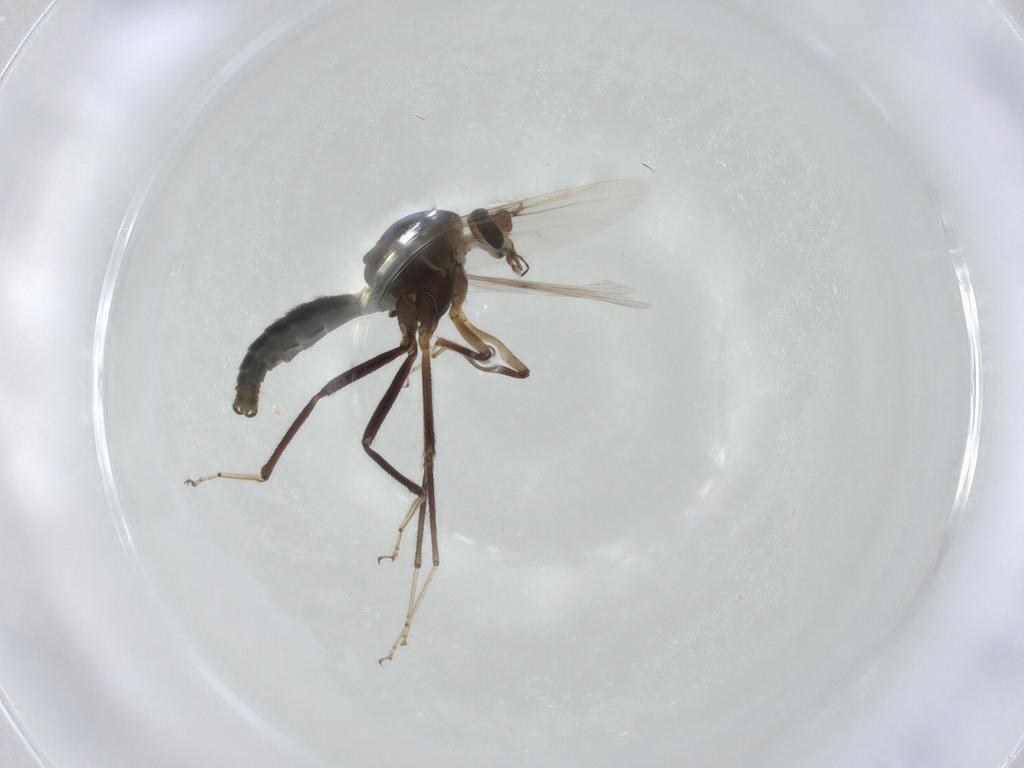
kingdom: Animalia
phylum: Arthropoda
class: Insecta
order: Diptera
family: Ceratopogonidae
